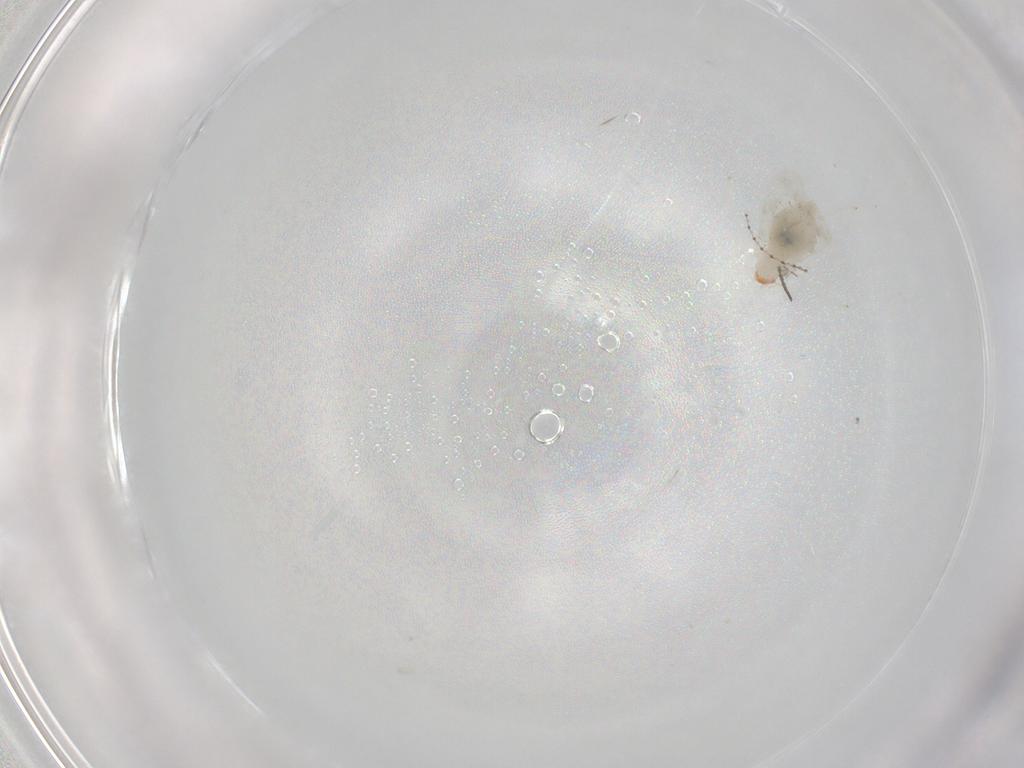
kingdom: Animalia
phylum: Arthropoda
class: Insecta
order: Diptera
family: Cecidomyiidae
